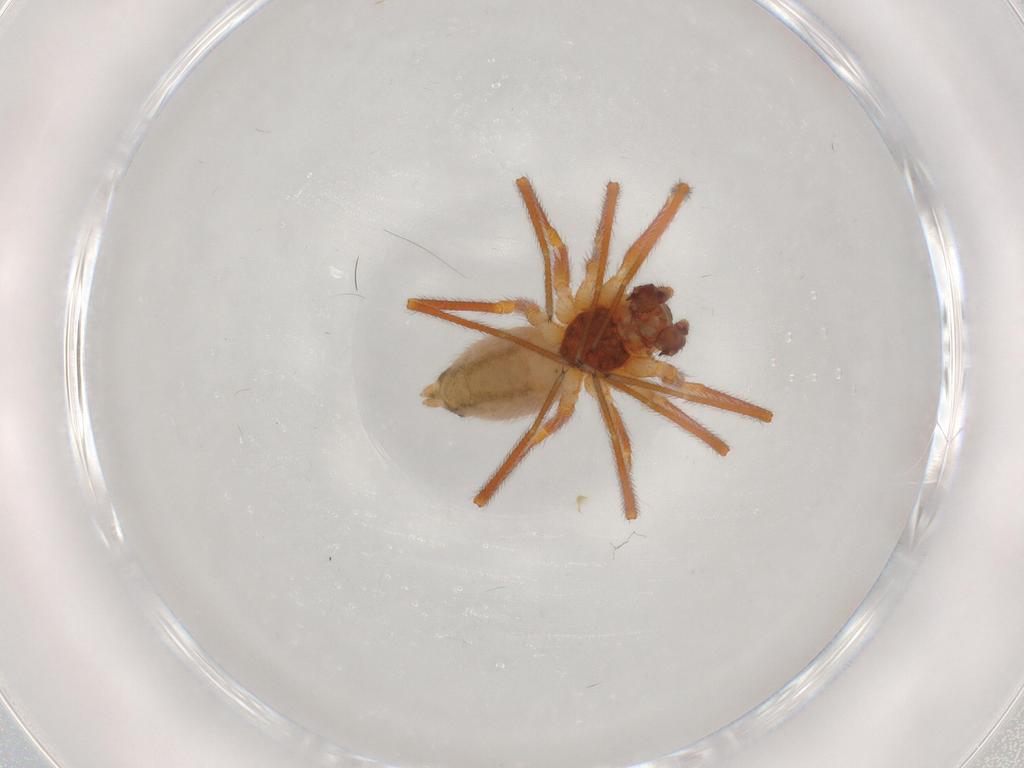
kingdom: Animalia
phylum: Arthropoda
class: Arachnida
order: Araneae
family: Linyphiidae
